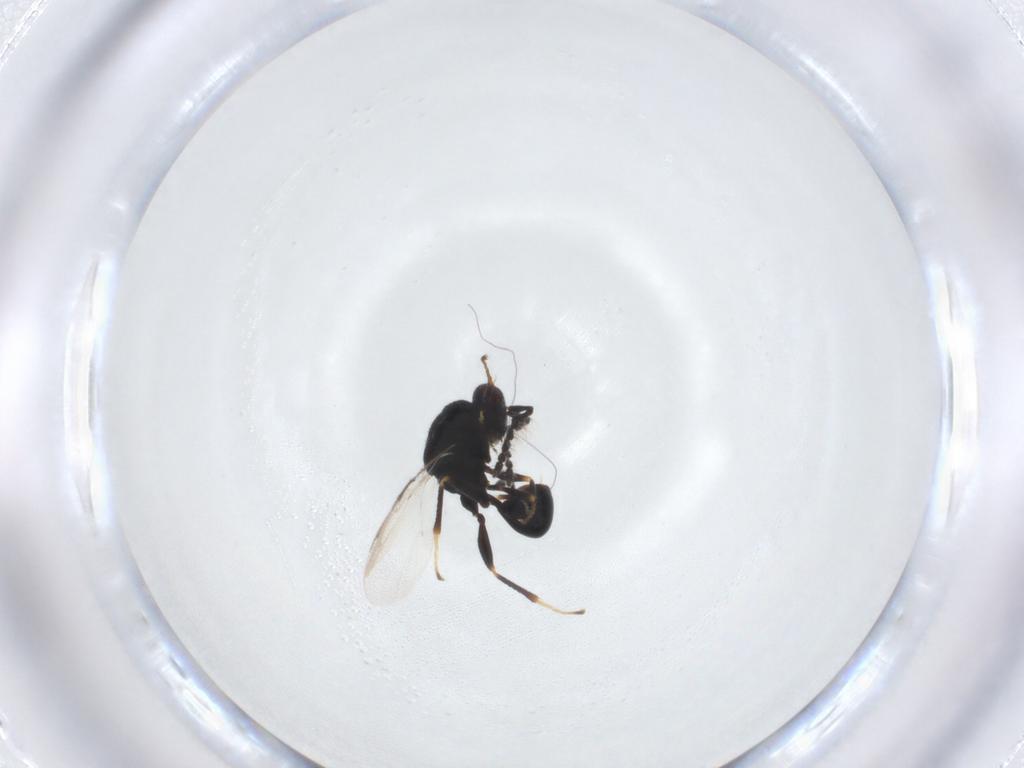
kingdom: Animalia
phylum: Arthropoda
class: Insecta
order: Hymenoptera
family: Eurytomidae
